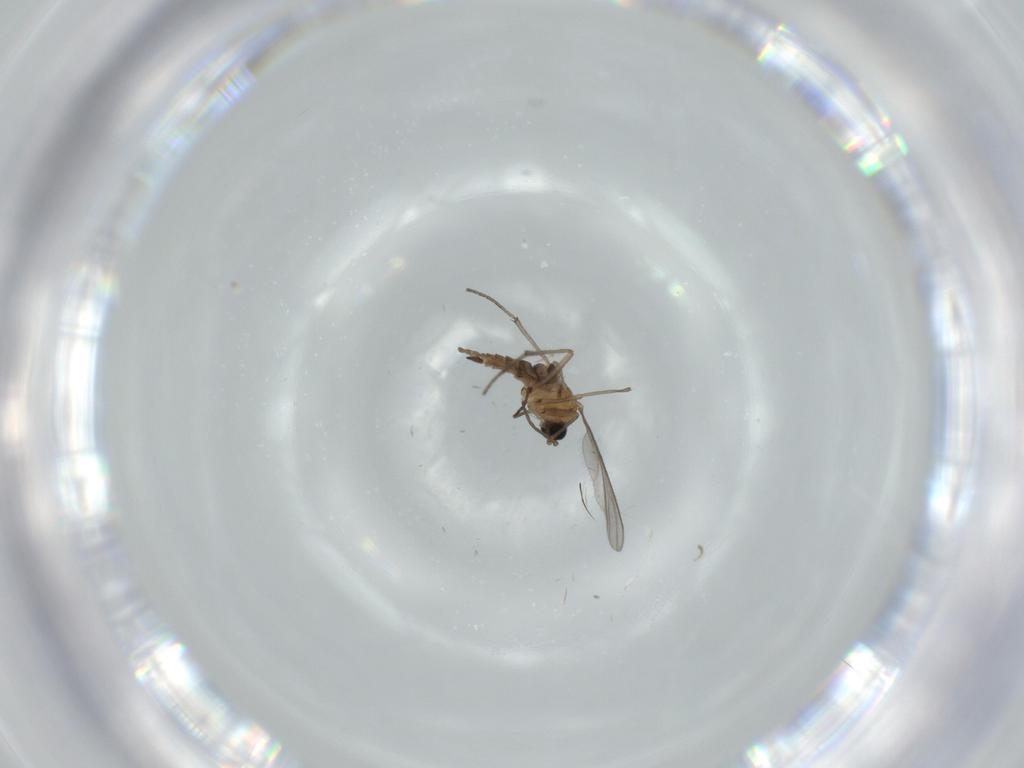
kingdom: Animalia
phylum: Arthropoda
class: Insecta
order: Diptera
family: Sciaridae
